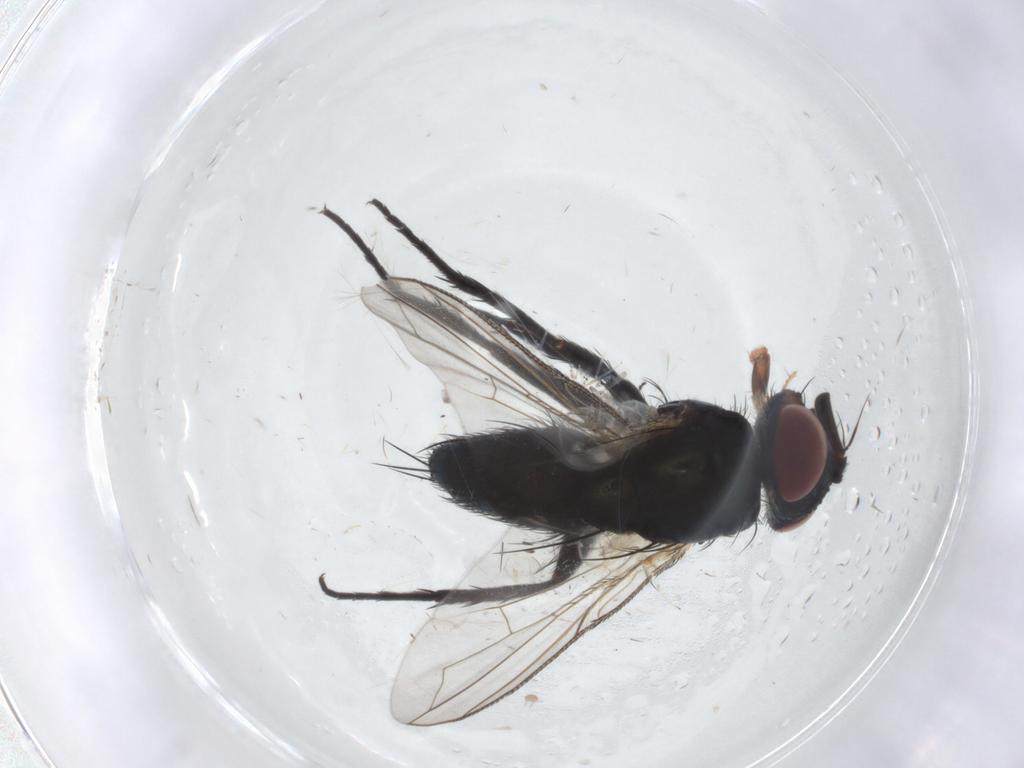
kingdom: Animalia
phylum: Arthropoda
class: Insecta
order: Diptera
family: Tachinidae
